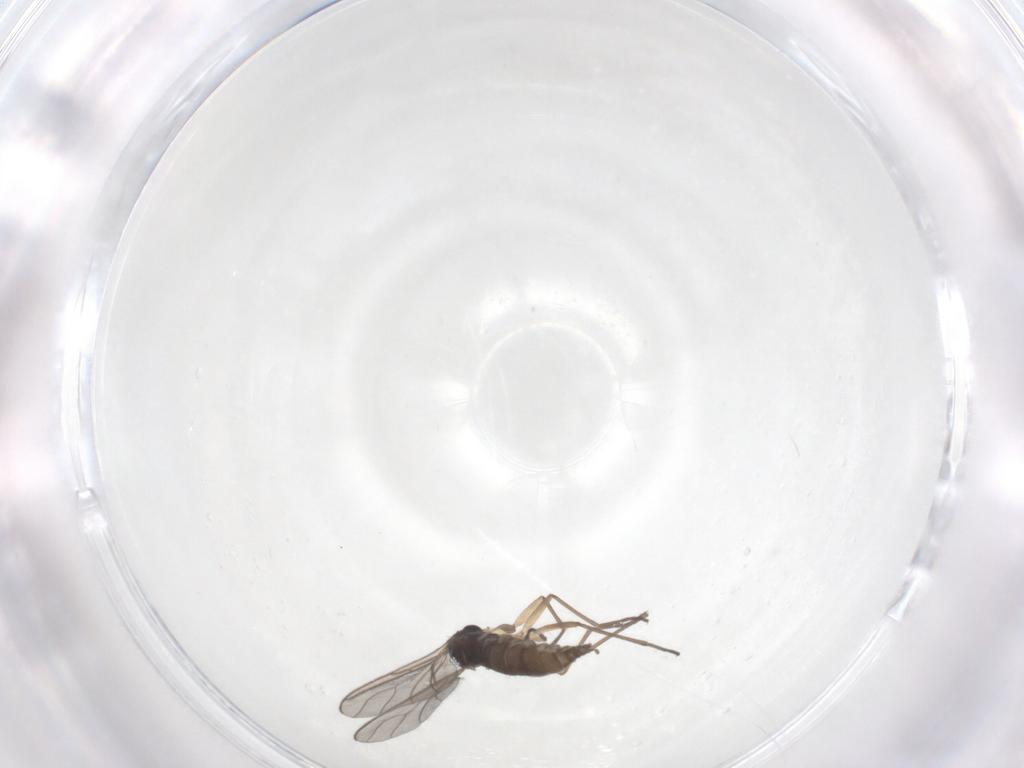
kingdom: Animalia
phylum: Arthropoda
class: Insecta
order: Diptera
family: Sciaridae
